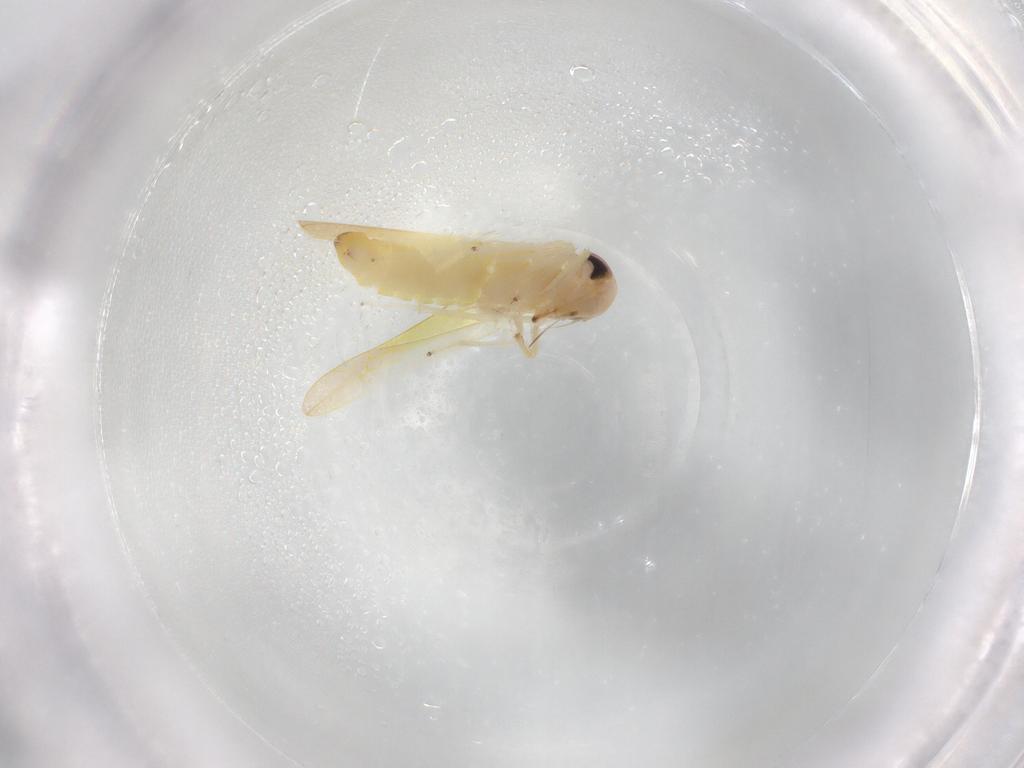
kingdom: Animalia
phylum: Arthropoda
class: Insecta
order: Hemiptera
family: Cicadellidae
